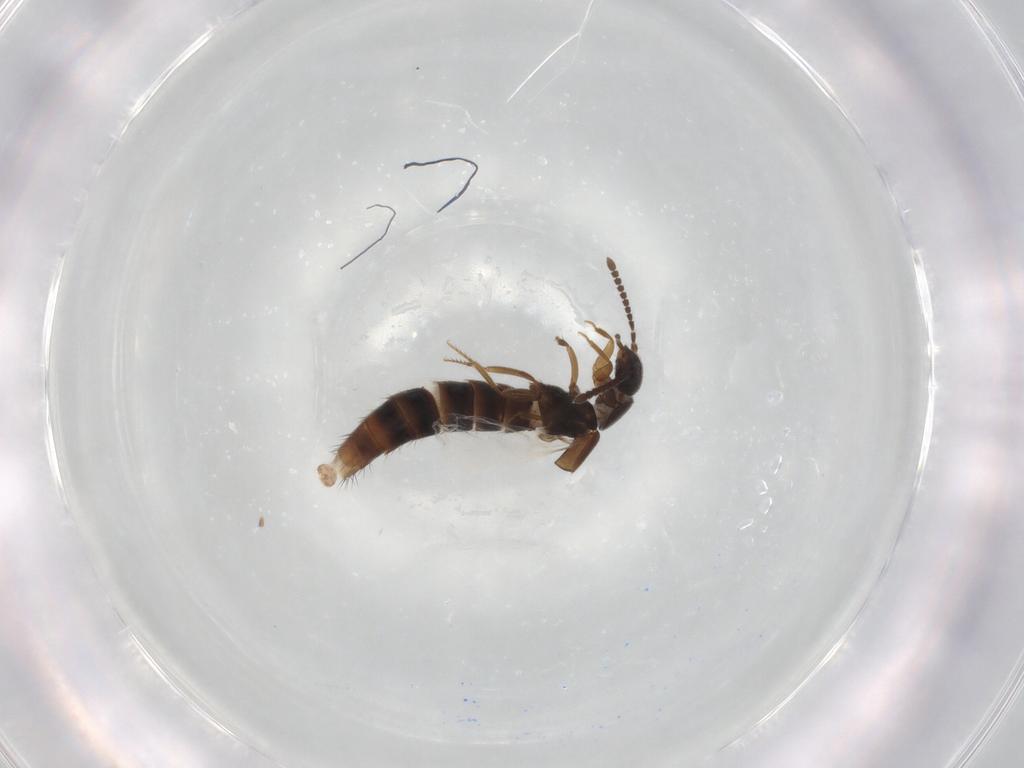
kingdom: Animalia
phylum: Arthropoda
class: Insecta
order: Coleoptera
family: Staphylinidae
